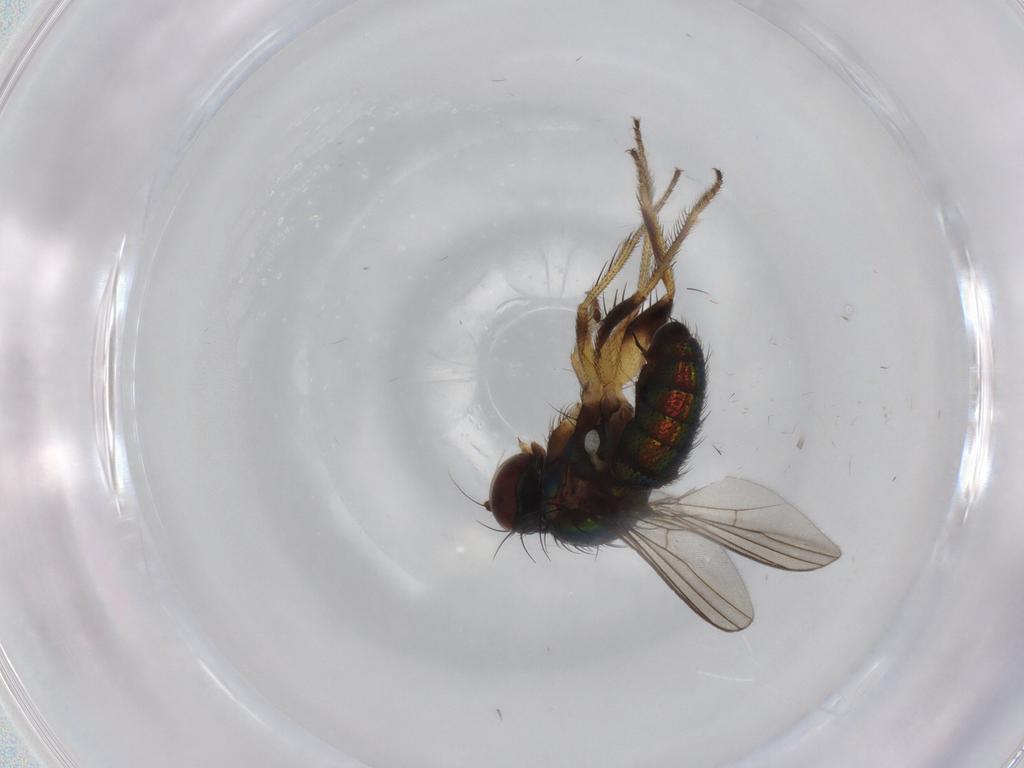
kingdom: Animalia
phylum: Arthropoda
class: Insecta
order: Diptera
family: Dolichopodidae
